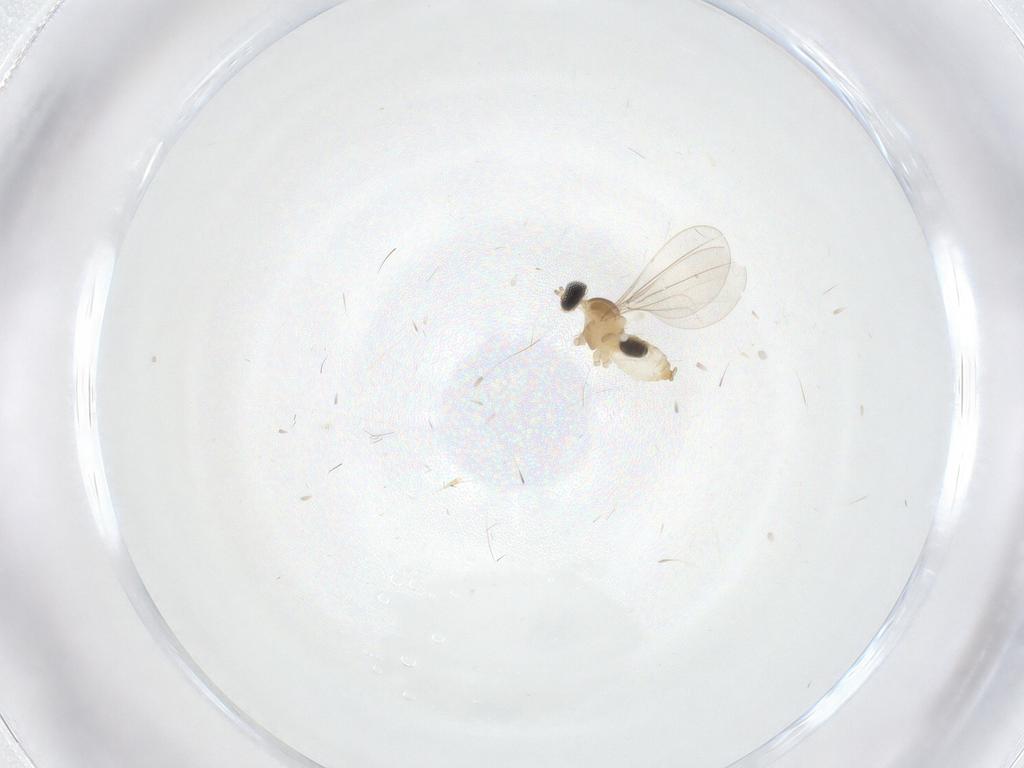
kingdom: Animalia
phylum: Arthropoda
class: Insecta
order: Diptera
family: Cecidomyiidae
